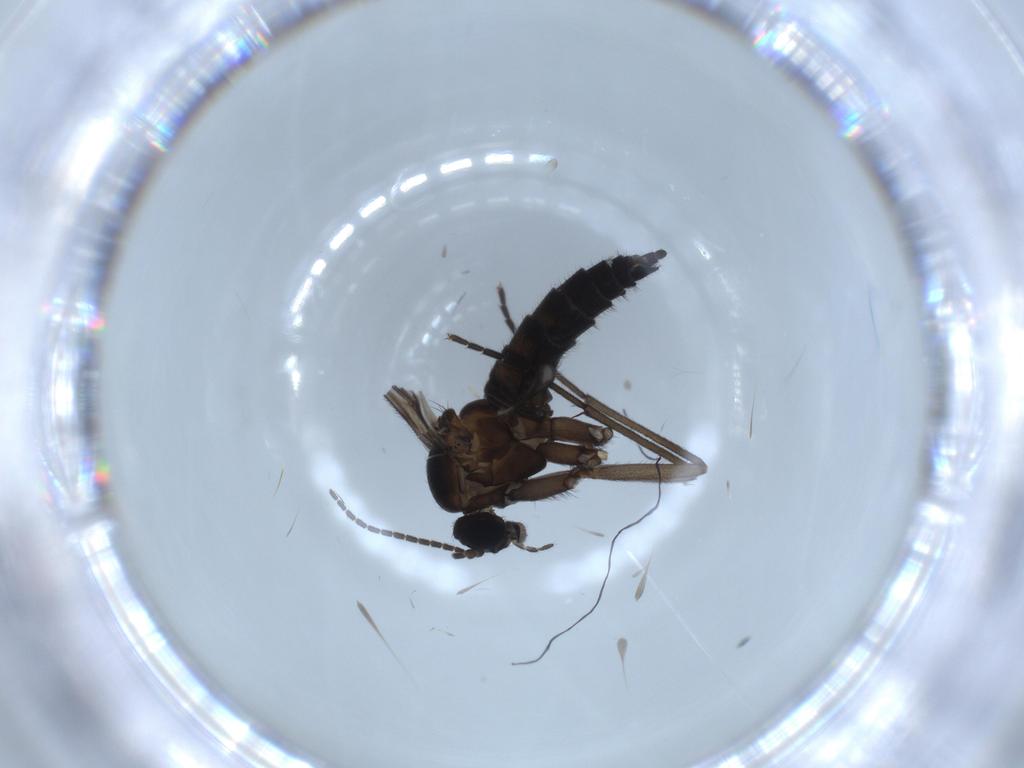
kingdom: Animalia
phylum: Arthropoda
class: Insecta
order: Diptera
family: Sciaridae
